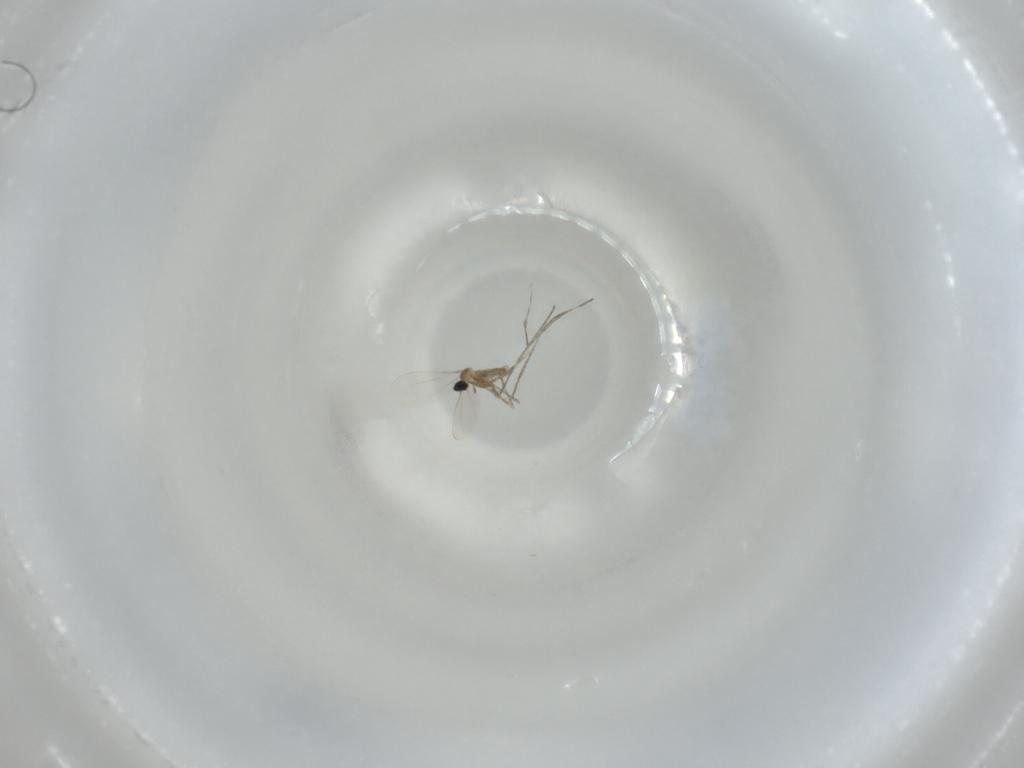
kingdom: Animalia
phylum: Arthropoda
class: Insecta
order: Diptera
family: Cecidomyiidae
